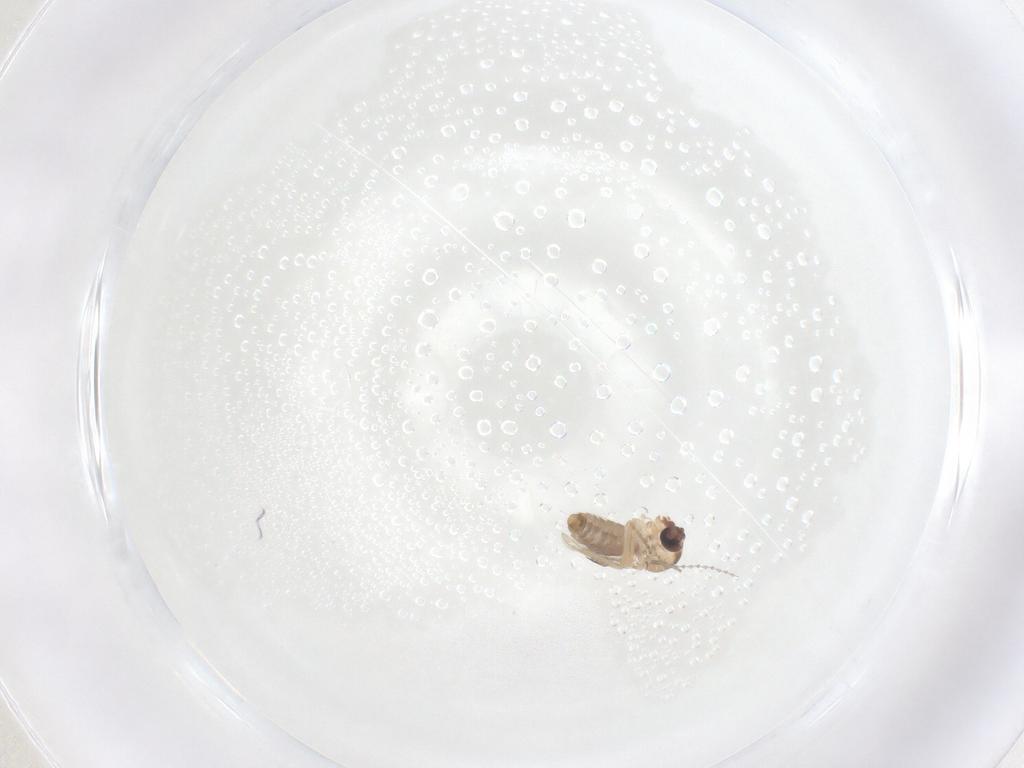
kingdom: Animalia
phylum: Arthropoda
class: Insecta
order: Diptera
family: Ceratopogonidae
